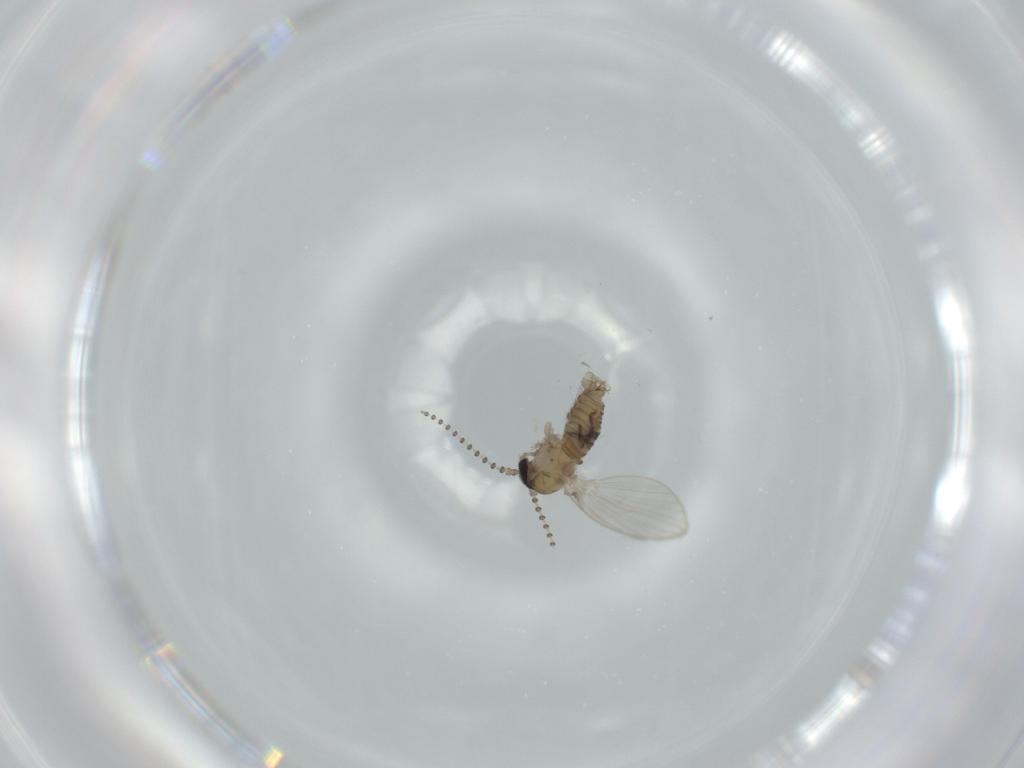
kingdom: Animalia
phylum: Arthropoda
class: Insecta
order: Diptera
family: Psychodidae
